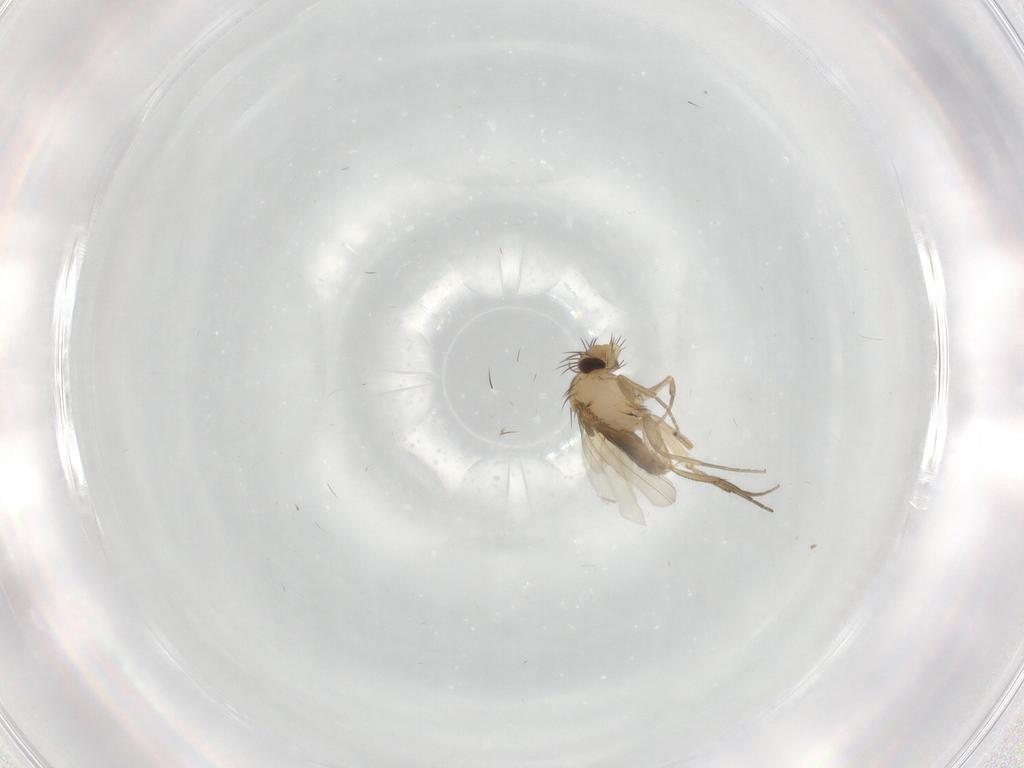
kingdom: Animalia
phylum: Arthropoda
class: Insecta
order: Diptera
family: Phoridae
